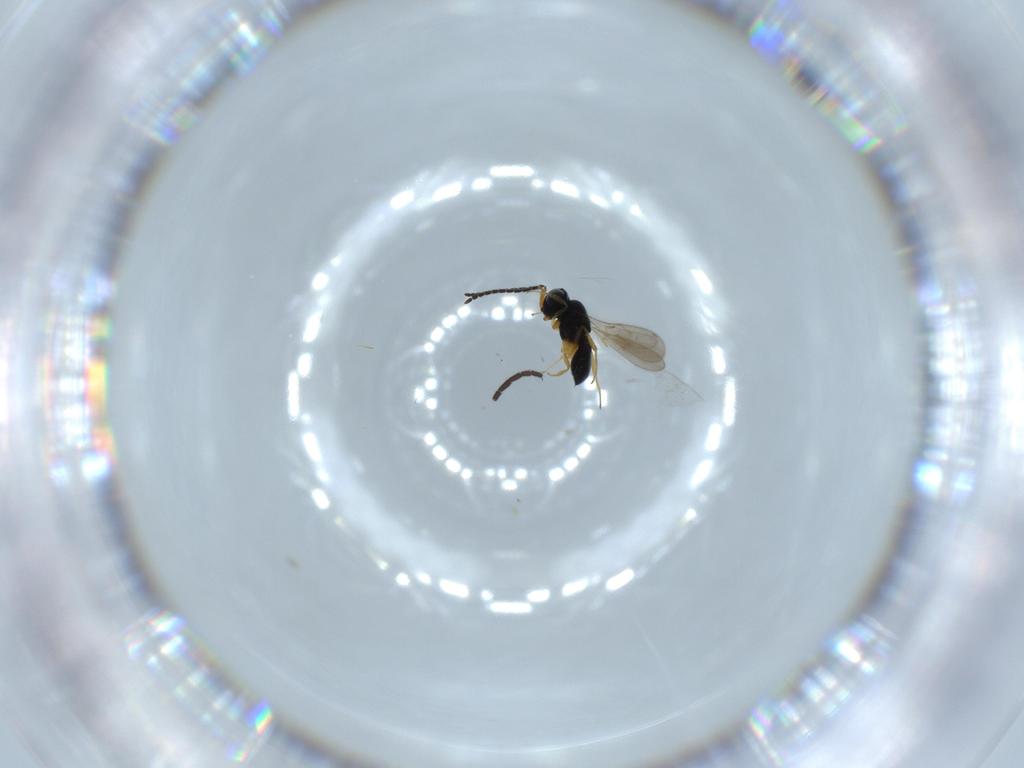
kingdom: Animalia
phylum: Arthropoda
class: Insecta
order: Hymenoptera
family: Scelionidae
